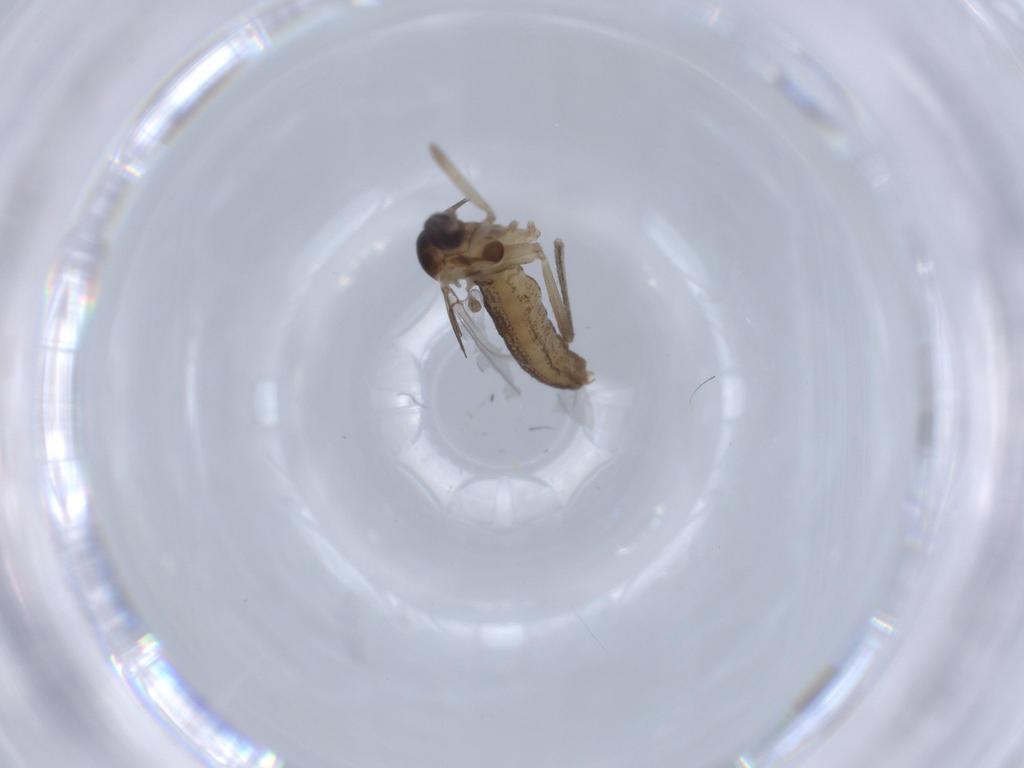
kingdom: Animalia
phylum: Arthropoda
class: Insecta
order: Diptera
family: Cecidomyiidae
